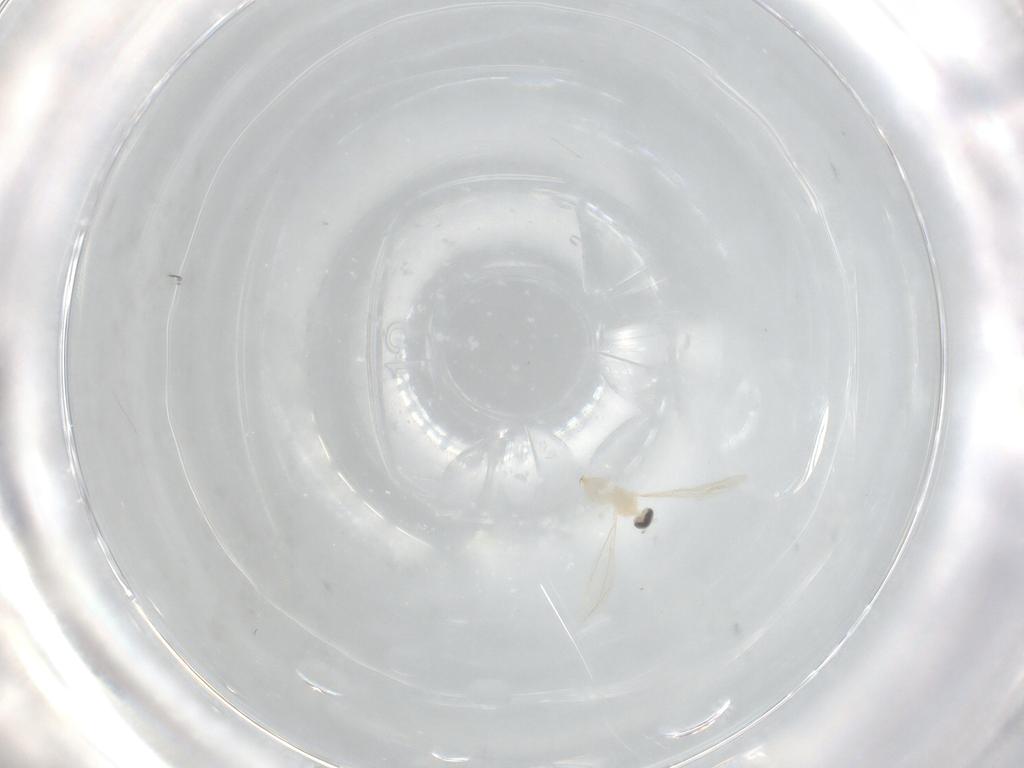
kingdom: Animalia
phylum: Arthropoda
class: Insecta
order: Diptera
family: Cecidomyiidae
